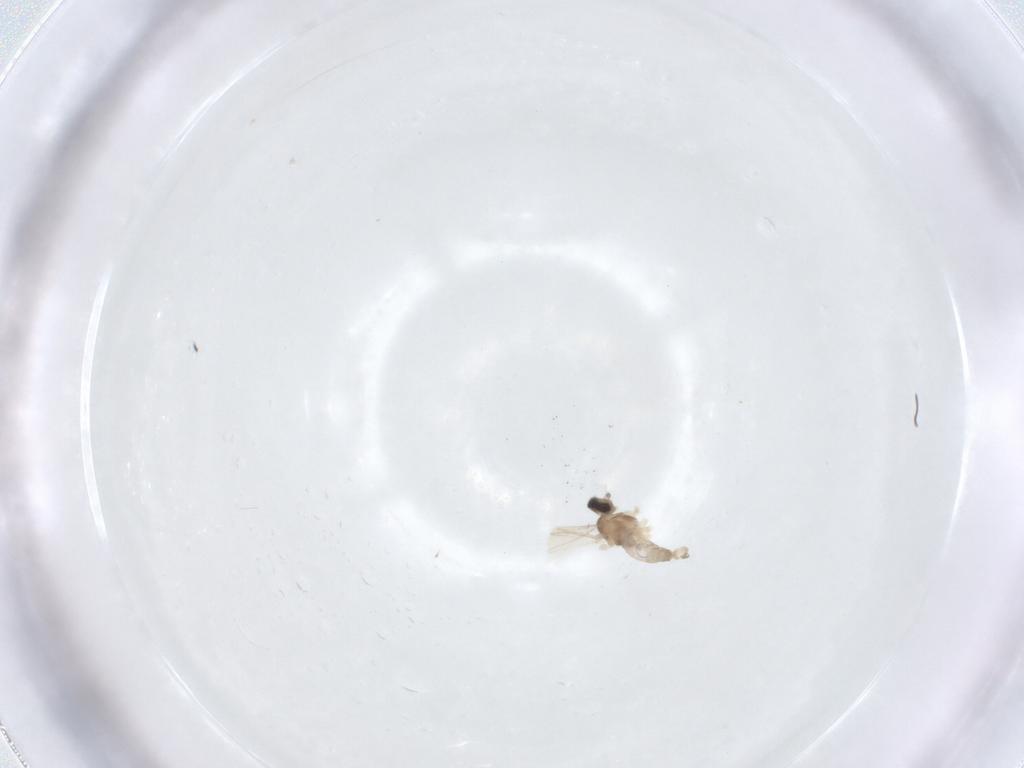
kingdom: Animalia
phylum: Arthropoda
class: Insecta
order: Diptera
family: Cecidomyiidae
